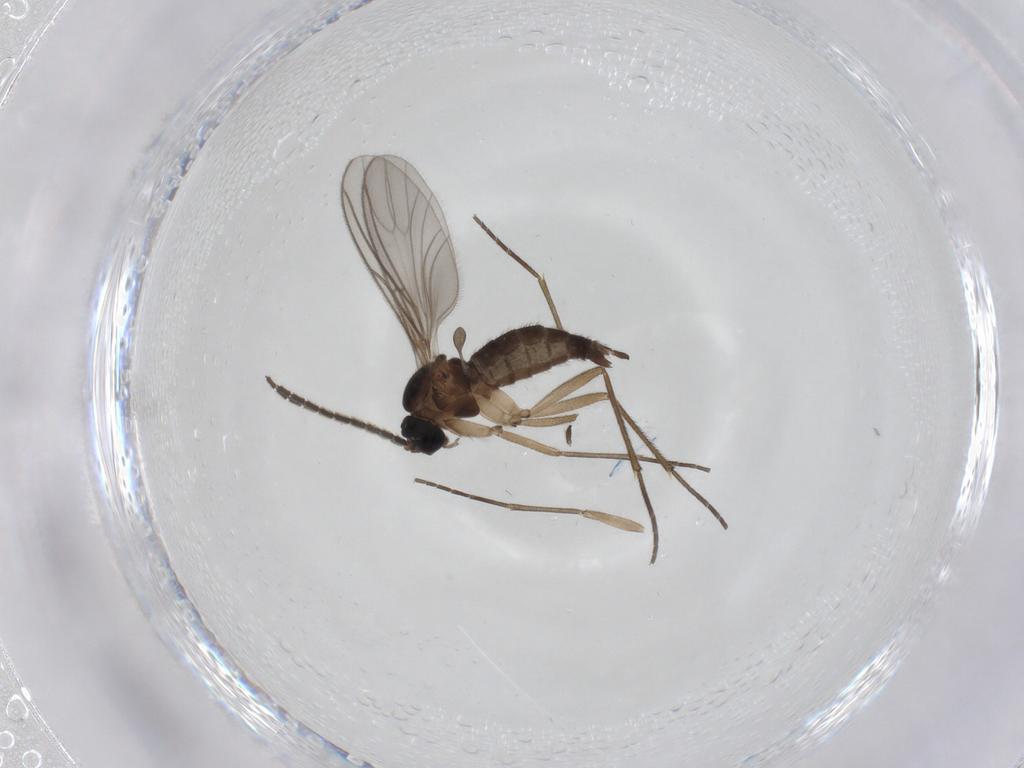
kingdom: Animalia
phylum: Arthropoda
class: Insecta
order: Diptera
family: Sciaridae
